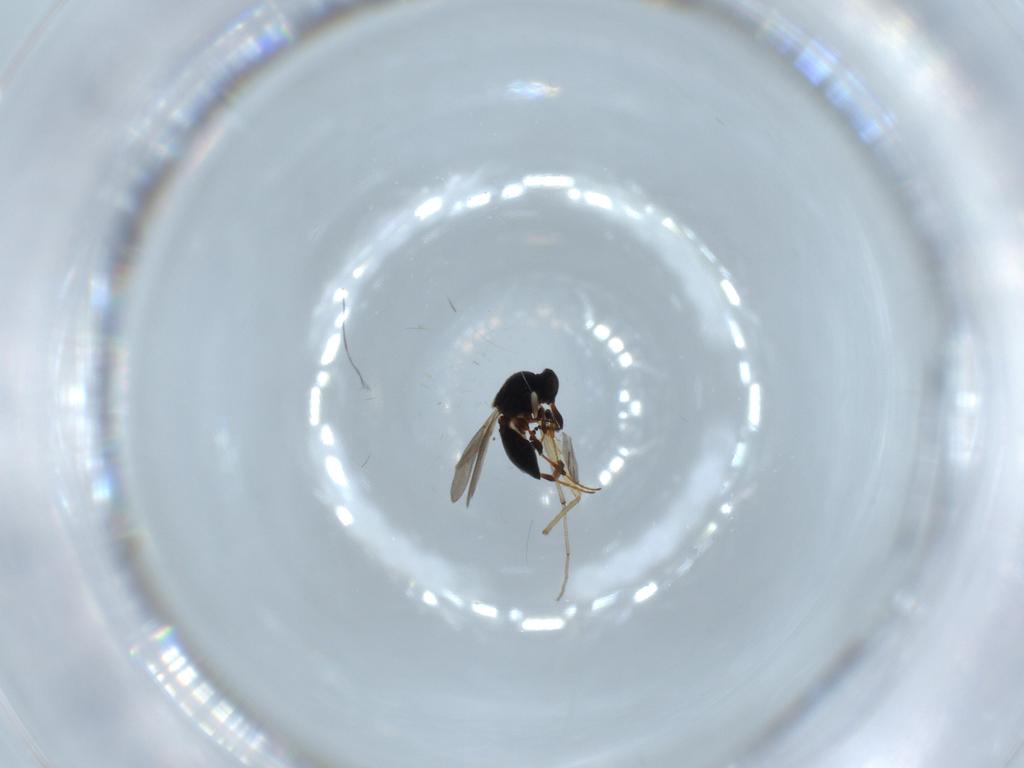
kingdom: Animalia
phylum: Arthropoda
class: Insecta
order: Hymenoptera
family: Platygastridae
